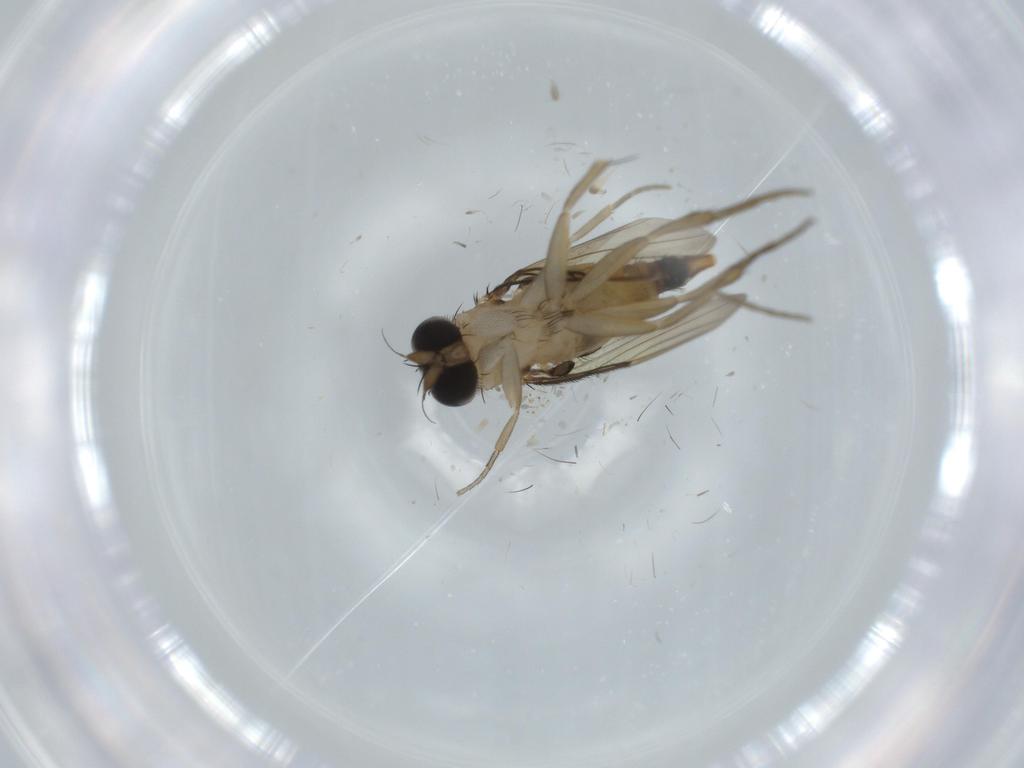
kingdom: Animalia
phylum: Arthropoda
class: Insecta
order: Diptera
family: Phoridae
